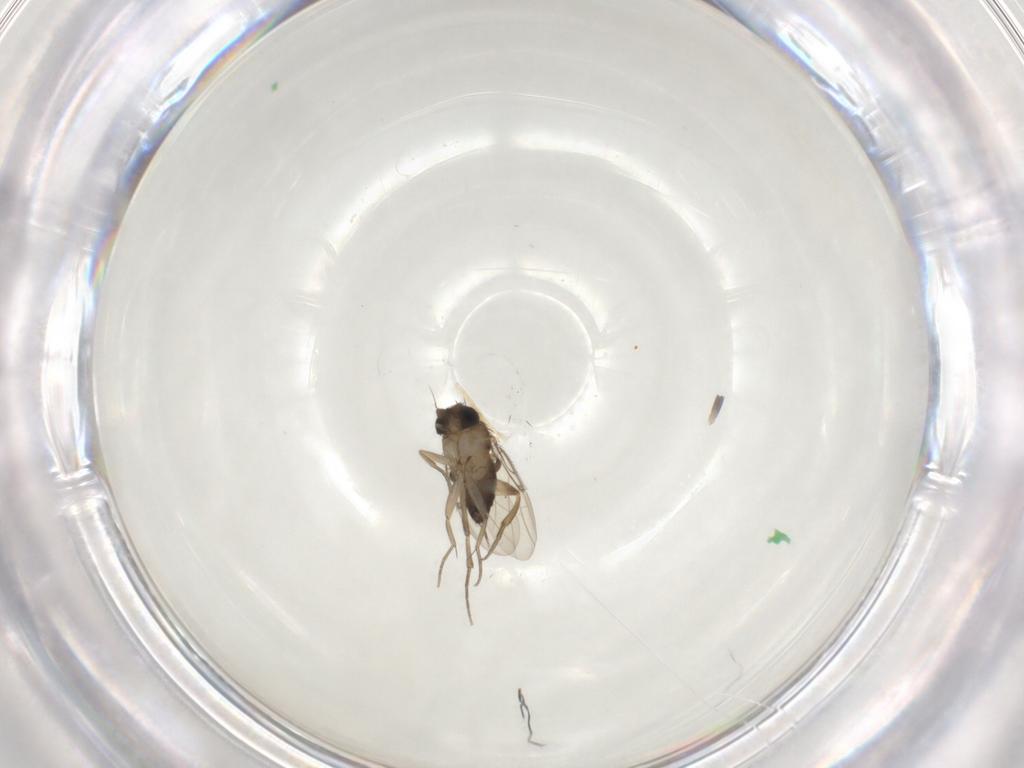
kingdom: Animalia
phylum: Arthropoda
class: Insecta
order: Diptera
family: Phoridae
